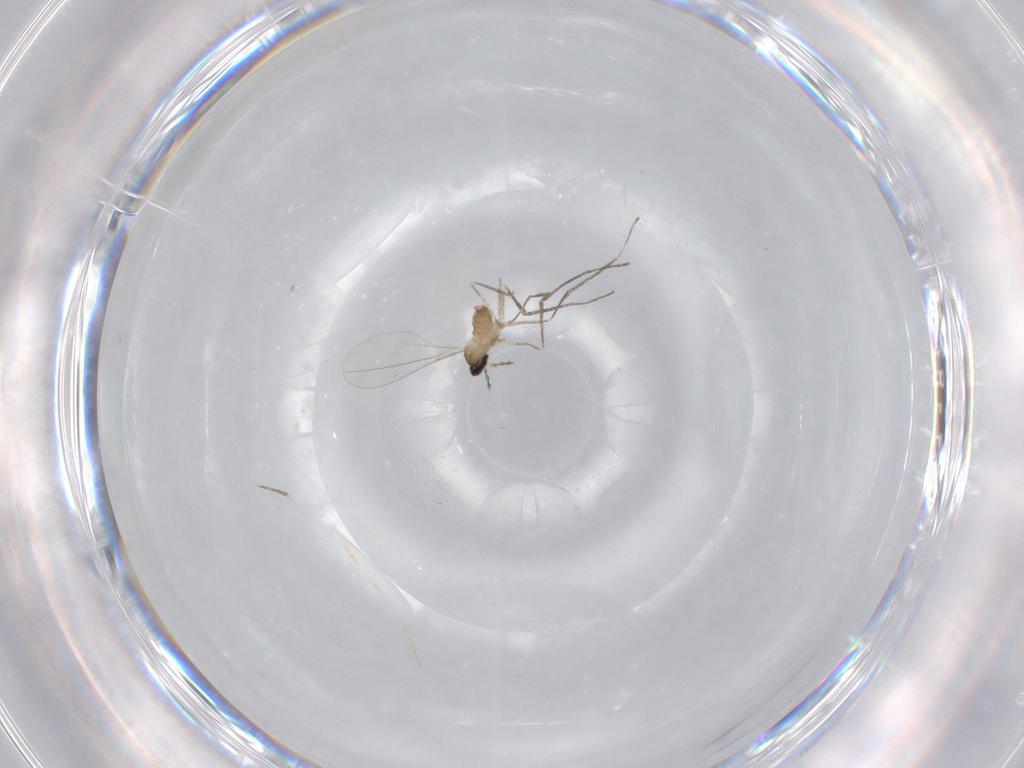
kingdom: Animalia
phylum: Arthropoda
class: Insecta
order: Diptera
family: Cecidomyiidae
